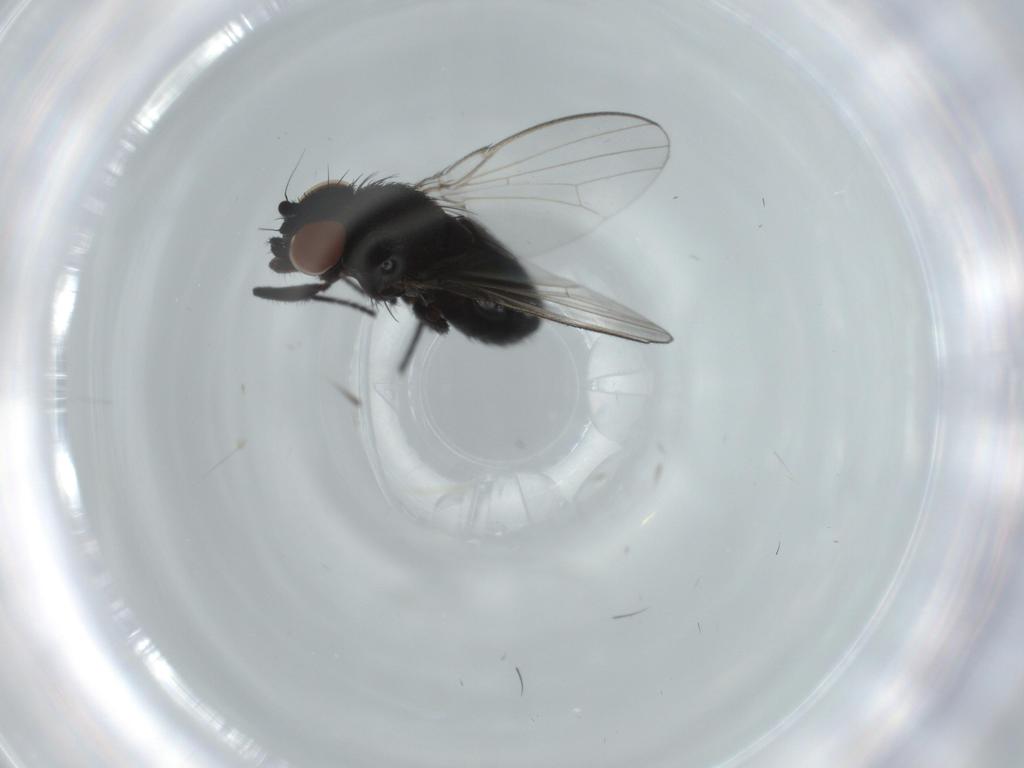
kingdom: Animalia
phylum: Arthropoda
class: Insecta
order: Diptera
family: Milichiidae
